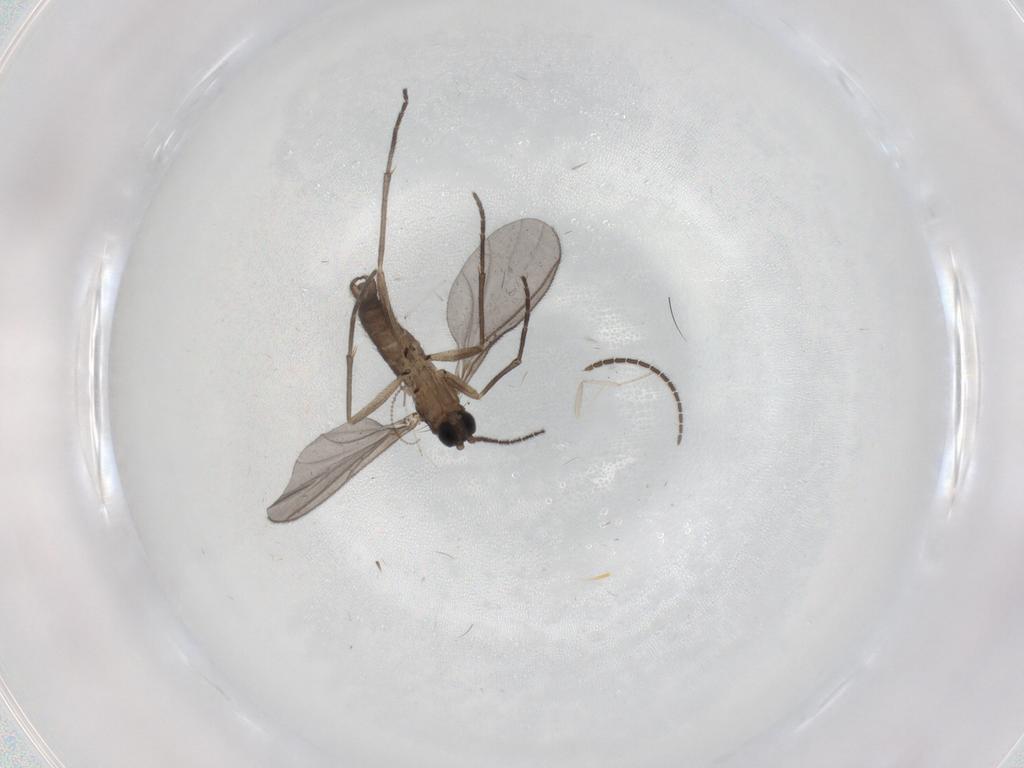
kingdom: Animalia
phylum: Arthropoda
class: Insecta
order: Diptera
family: Sciaridae
